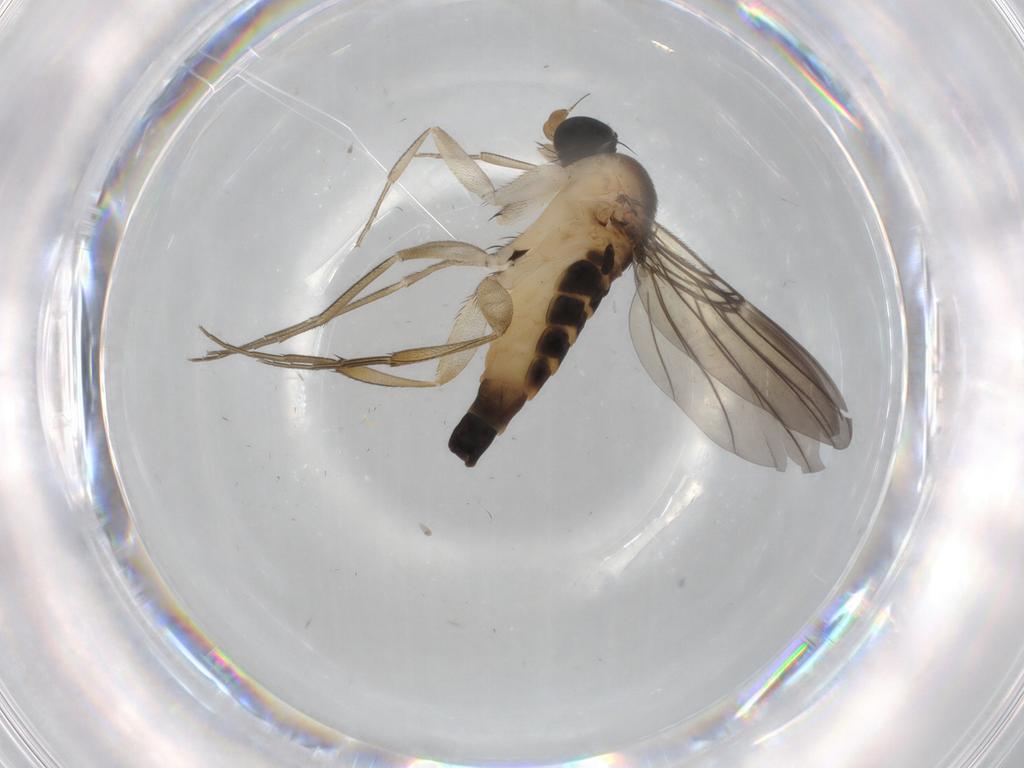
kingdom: Animalia
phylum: Arthropoda
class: Insecta
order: Diptera
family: Phoridae
